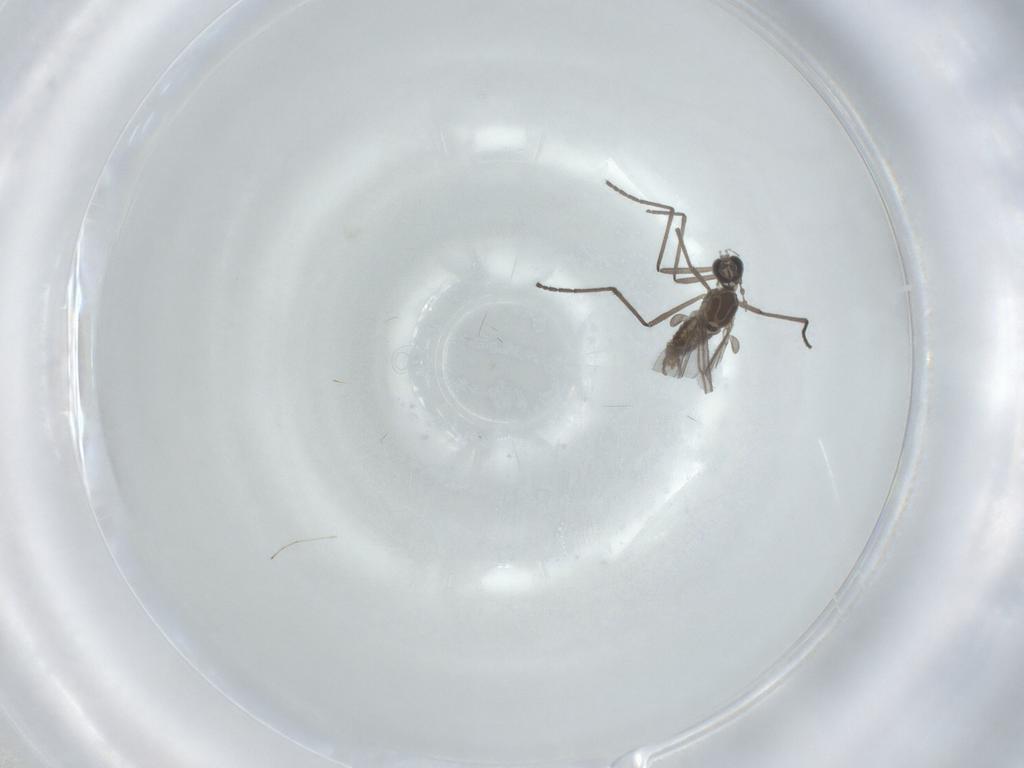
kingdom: Animalia
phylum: Arthropoda
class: Insecta
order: Diptera
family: Cecidomyiidae
